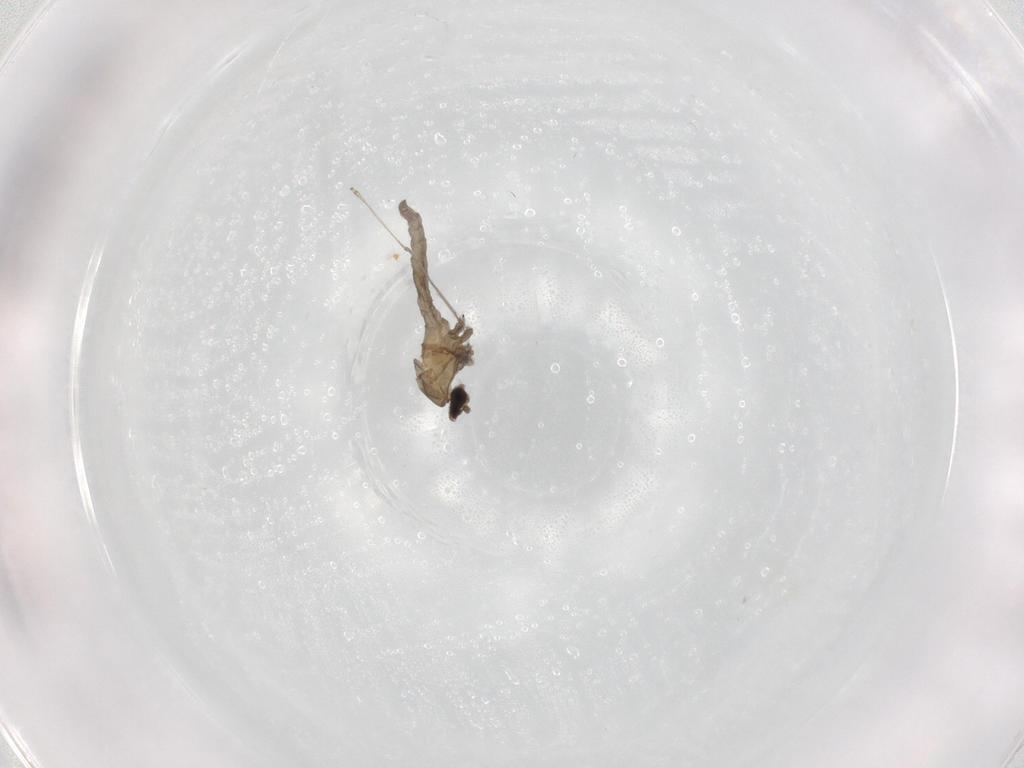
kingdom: Animalia
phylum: Arthropoda
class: Insecta
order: Diptera
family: Cecidomyiidae
